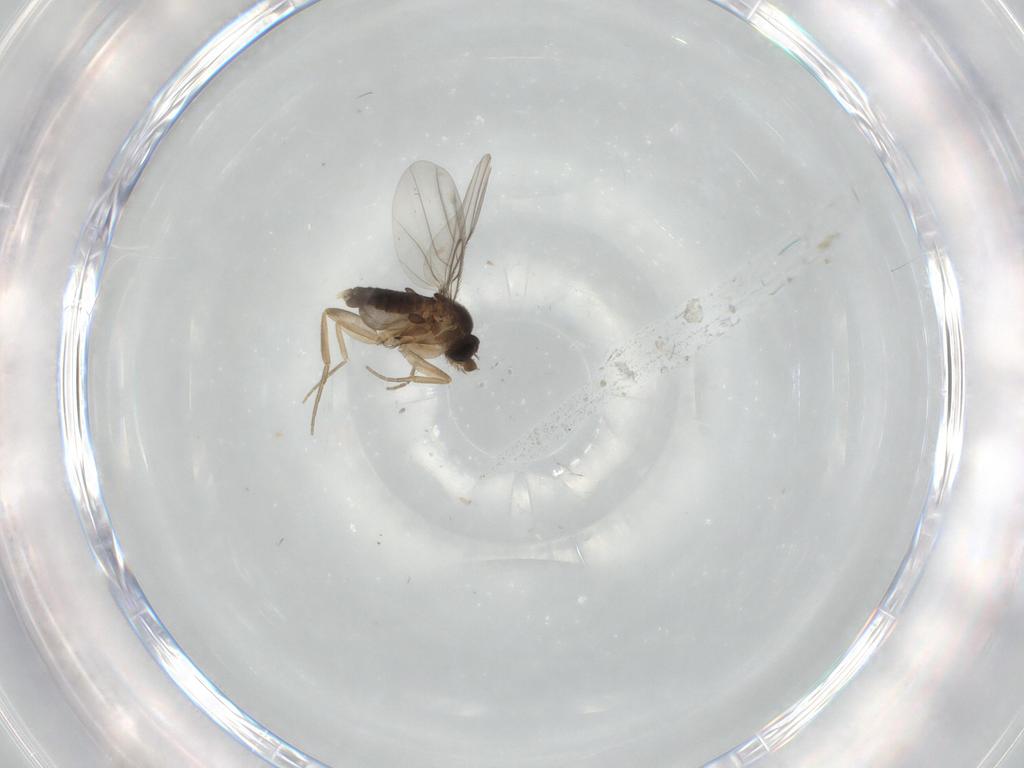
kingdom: Animalia
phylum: Arthropoda
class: Insecta
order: Diptera
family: Phoridae
